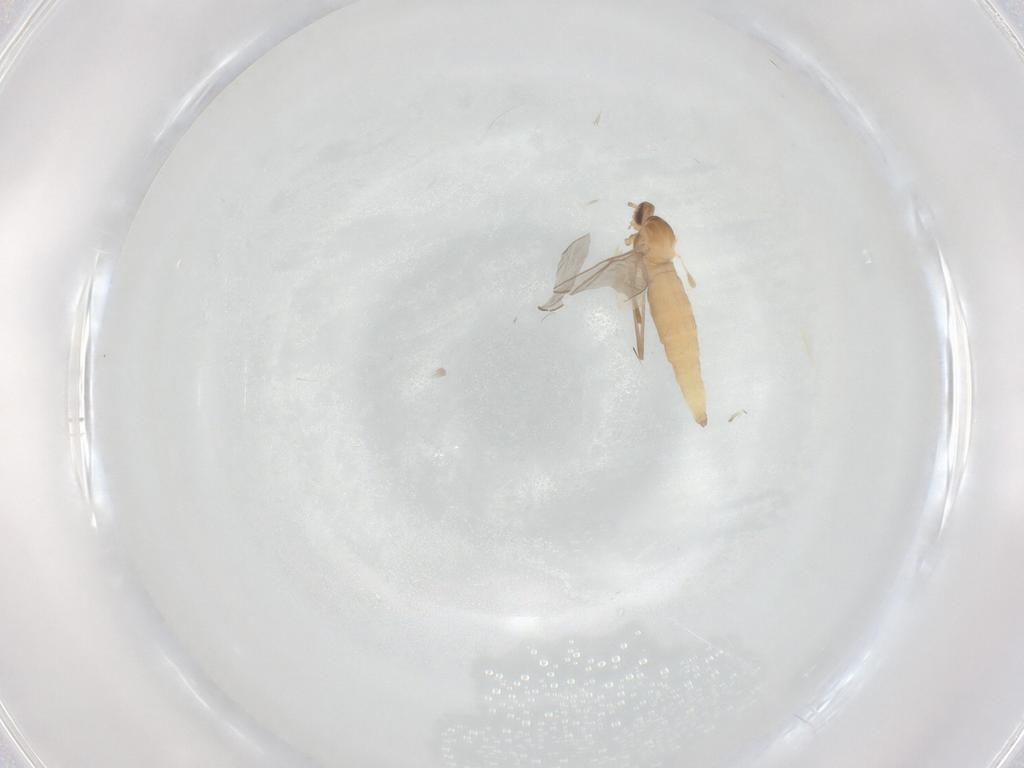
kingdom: Animalia
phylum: Arthropoda
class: Insecta
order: Diptera
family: Cecidomyiidae
